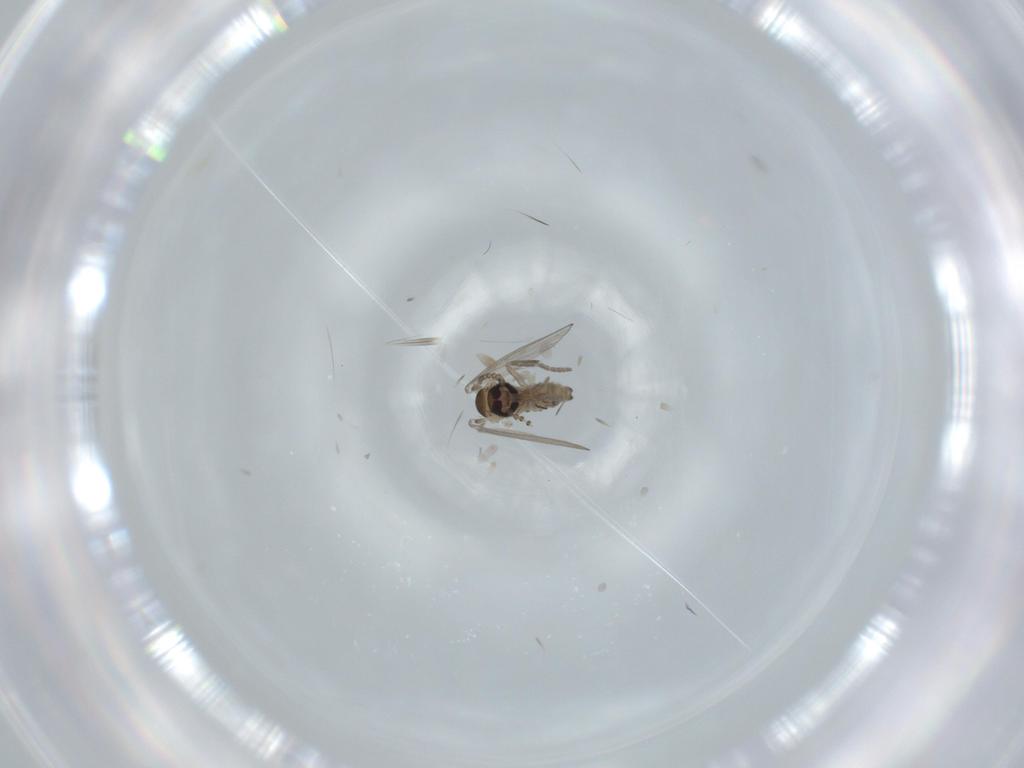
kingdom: Animalia
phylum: Arthropoda
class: Insecta
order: Diptera
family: Psychodidae
